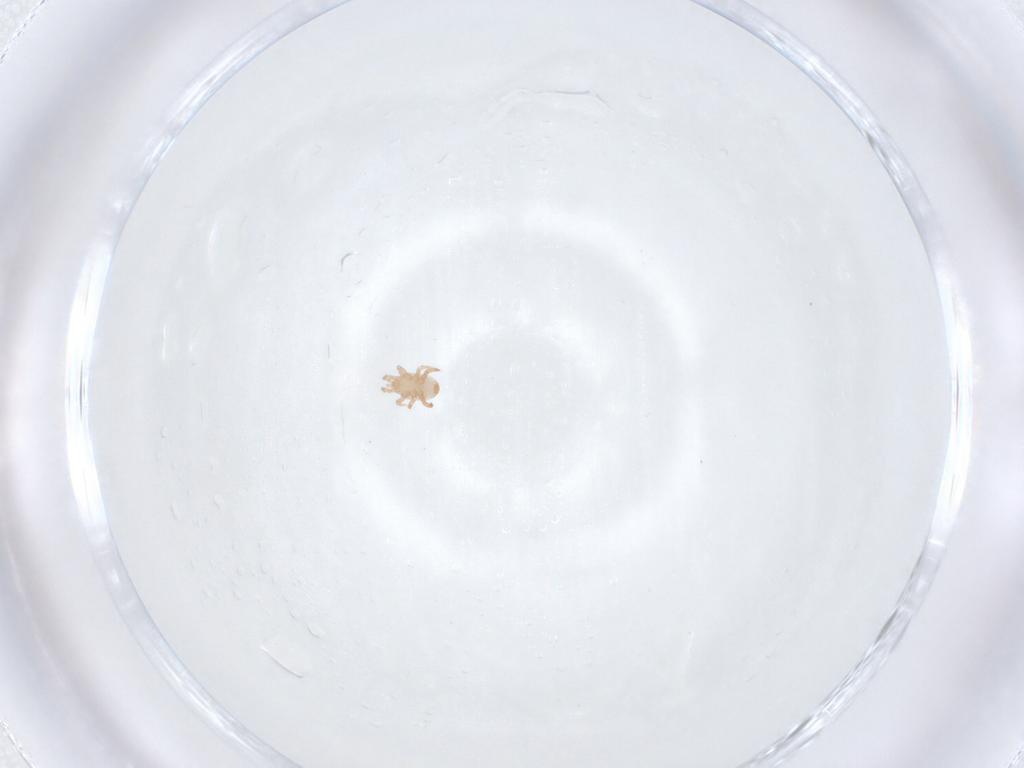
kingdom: Animalia
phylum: Arthropoda
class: Arachnida
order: Mesostigmata
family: Halolaelapidae
